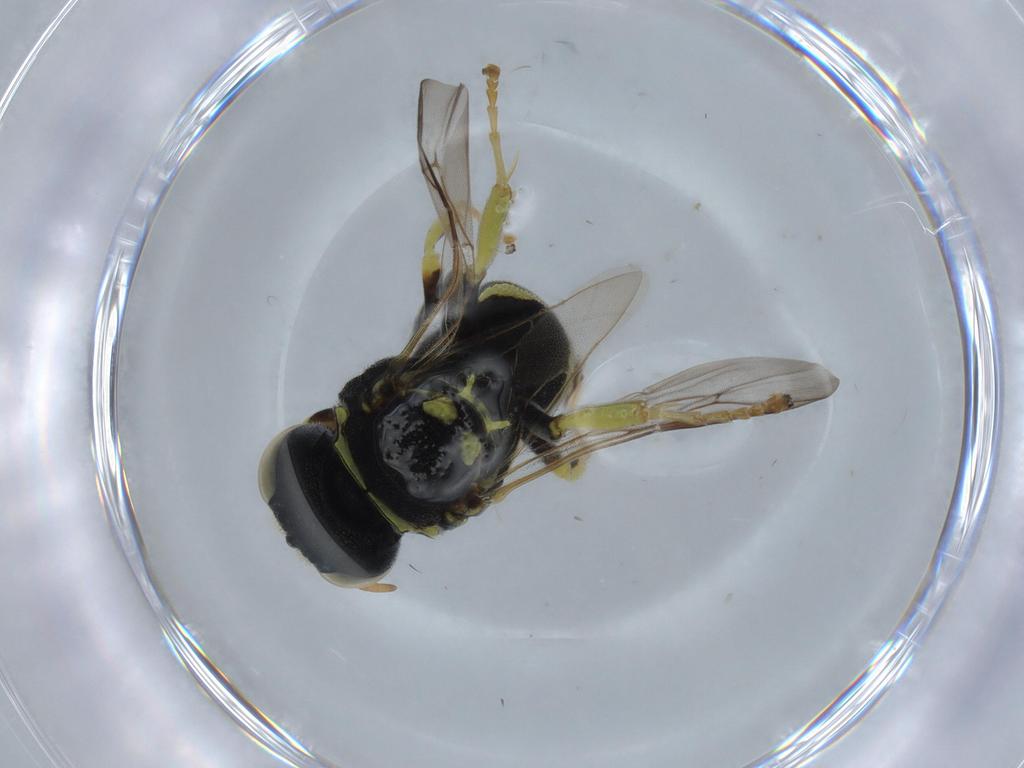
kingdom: Animalia
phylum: Arthropoda
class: Insecta
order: Hymenoptera
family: Crabronidae
